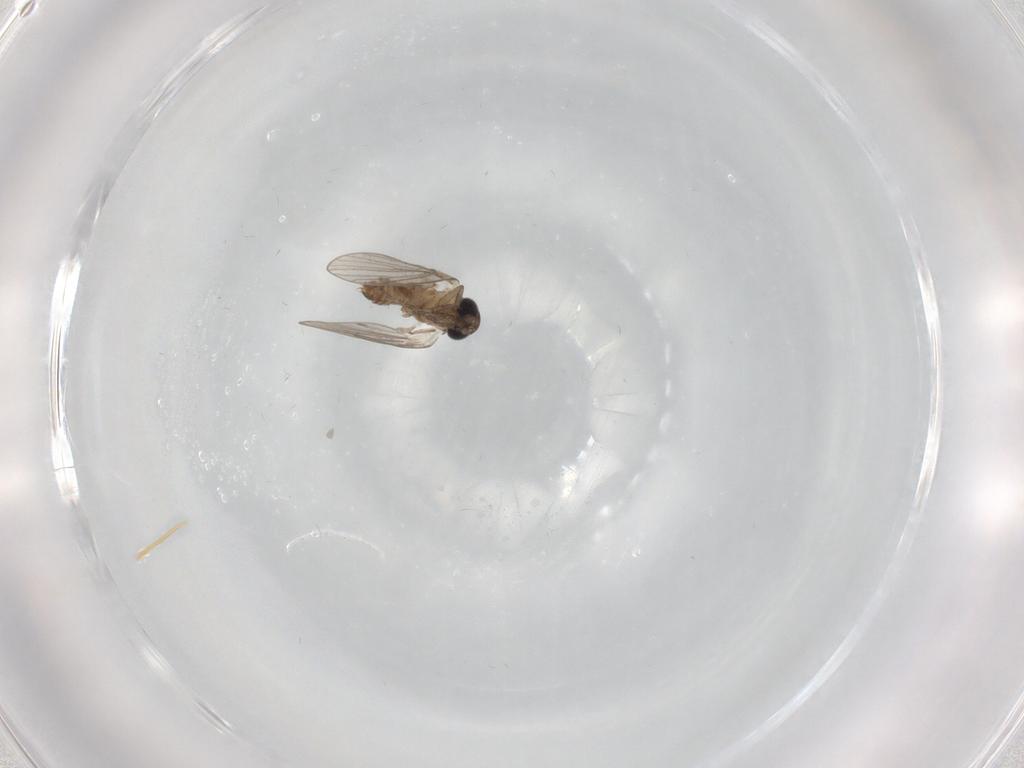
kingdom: Animalia
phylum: Arthropoda
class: Insecta
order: Diptera
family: Psychodidae
